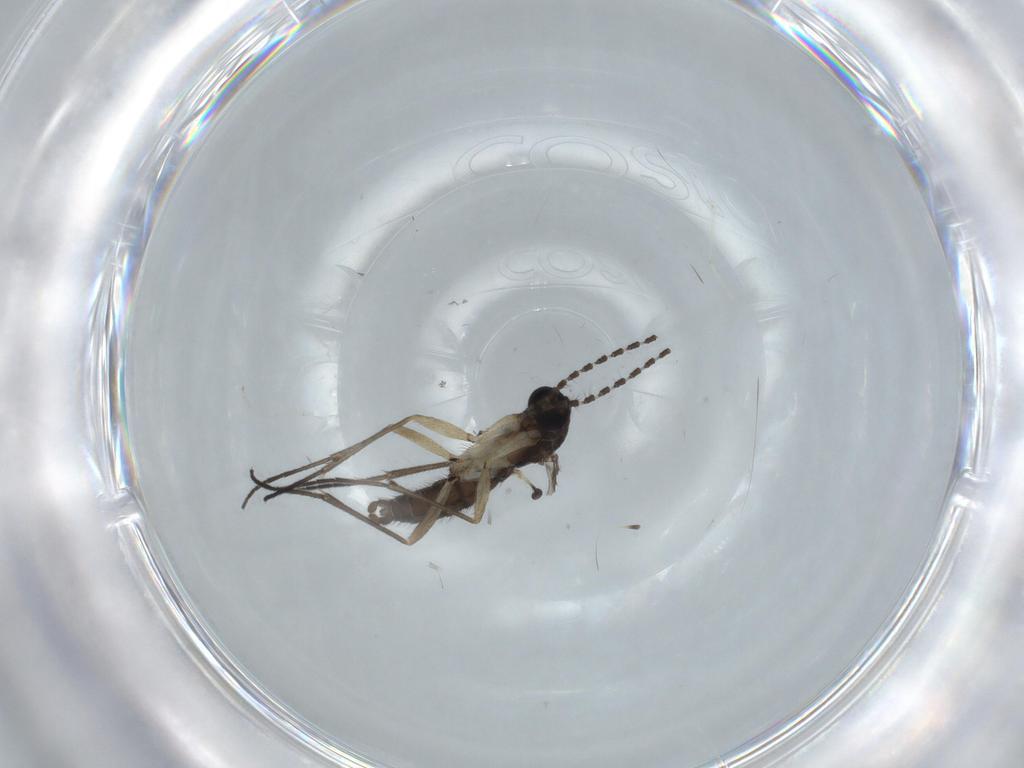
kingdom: Animalia
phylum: Arthropoda
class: Insecta
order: Diptera
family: Sciaridae
